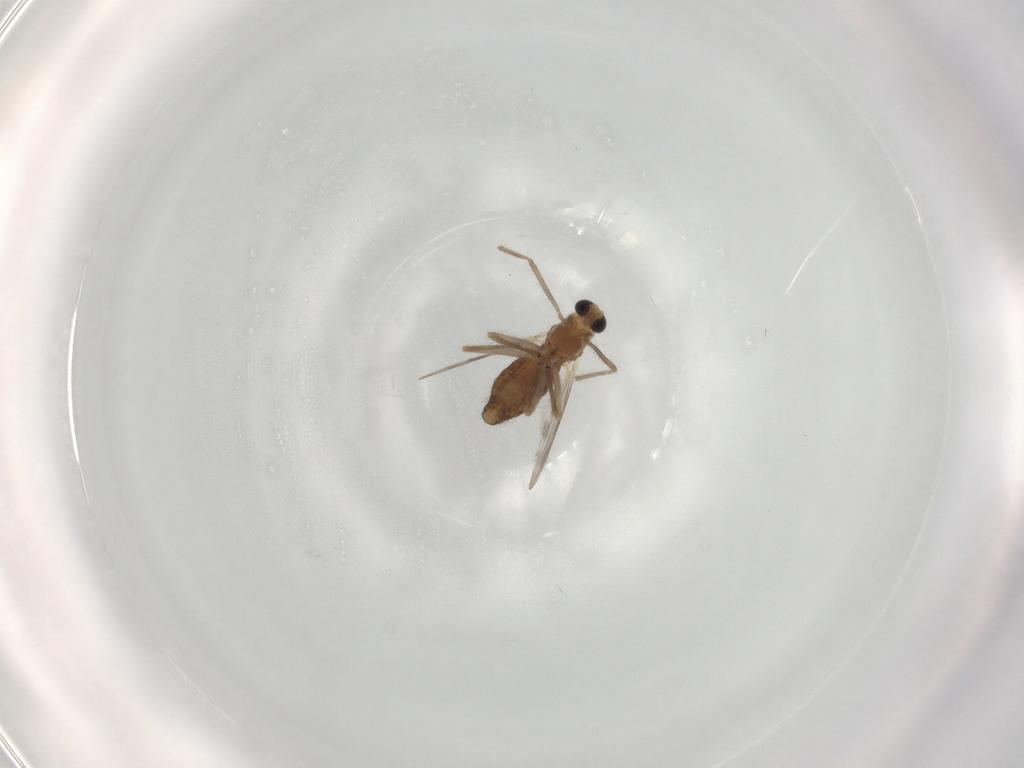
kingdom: Animalia
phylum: Arthropoda
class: Insecta
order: Diptera
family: Chironomidae
